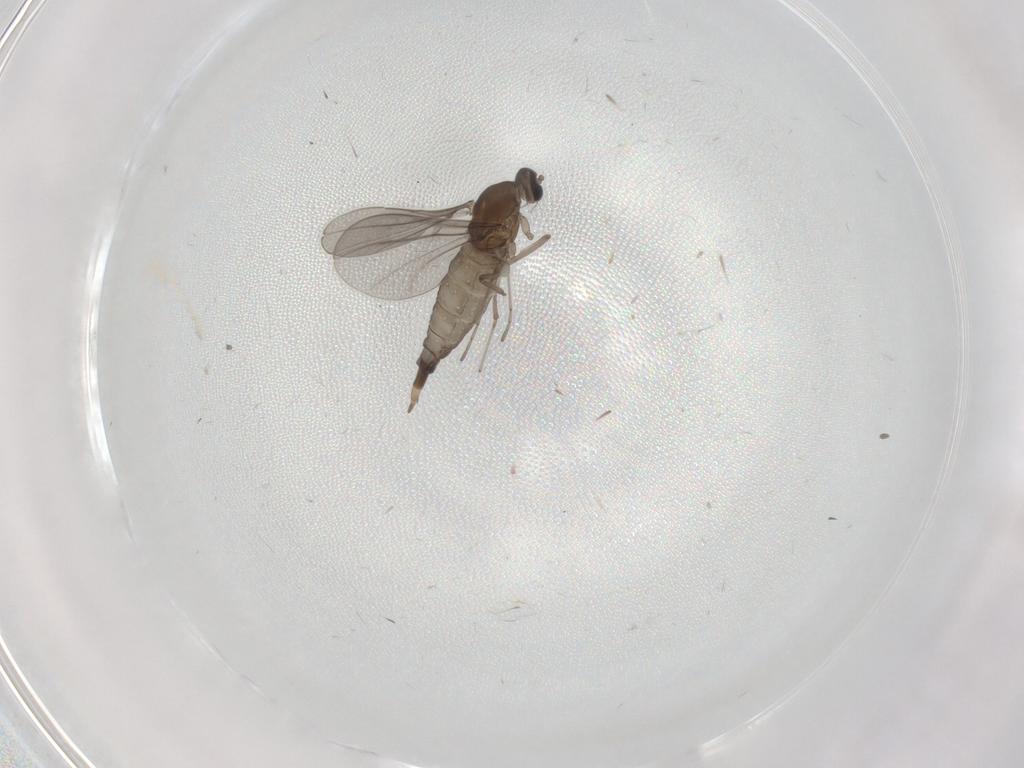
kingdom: Animalia
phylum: Arthropoda
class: Insecta
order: Diptera
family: Cecidomyiidae
